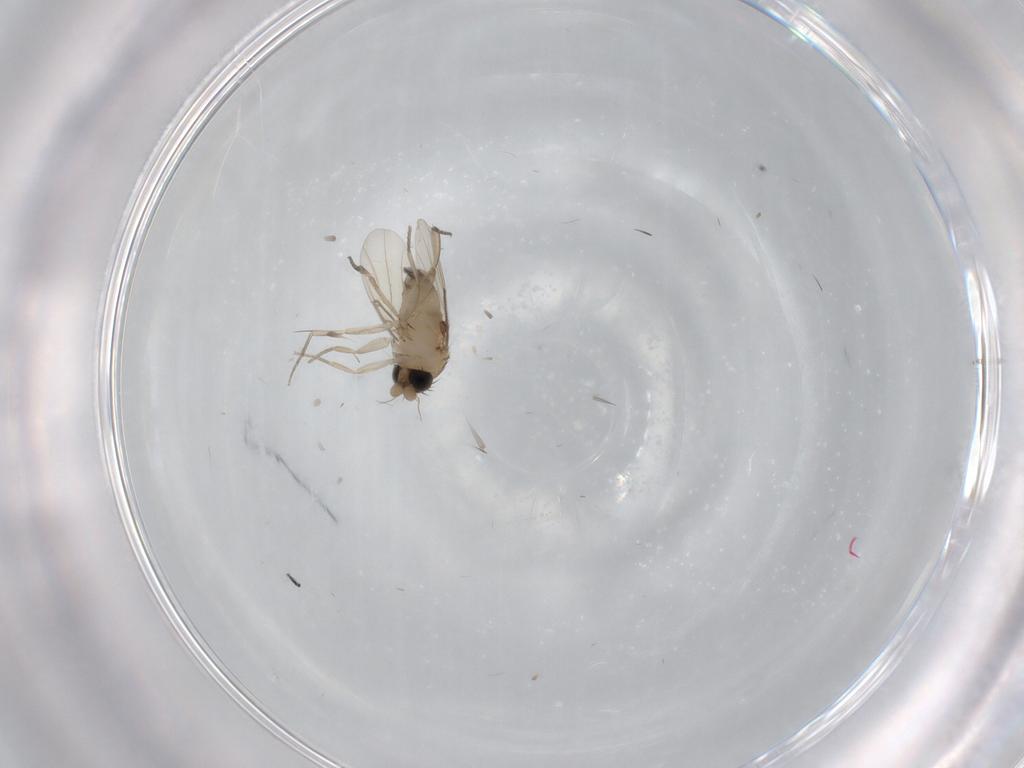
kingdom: Animalia
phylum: Arthropoda
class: Insecta
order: Diptera
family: Phoridae
